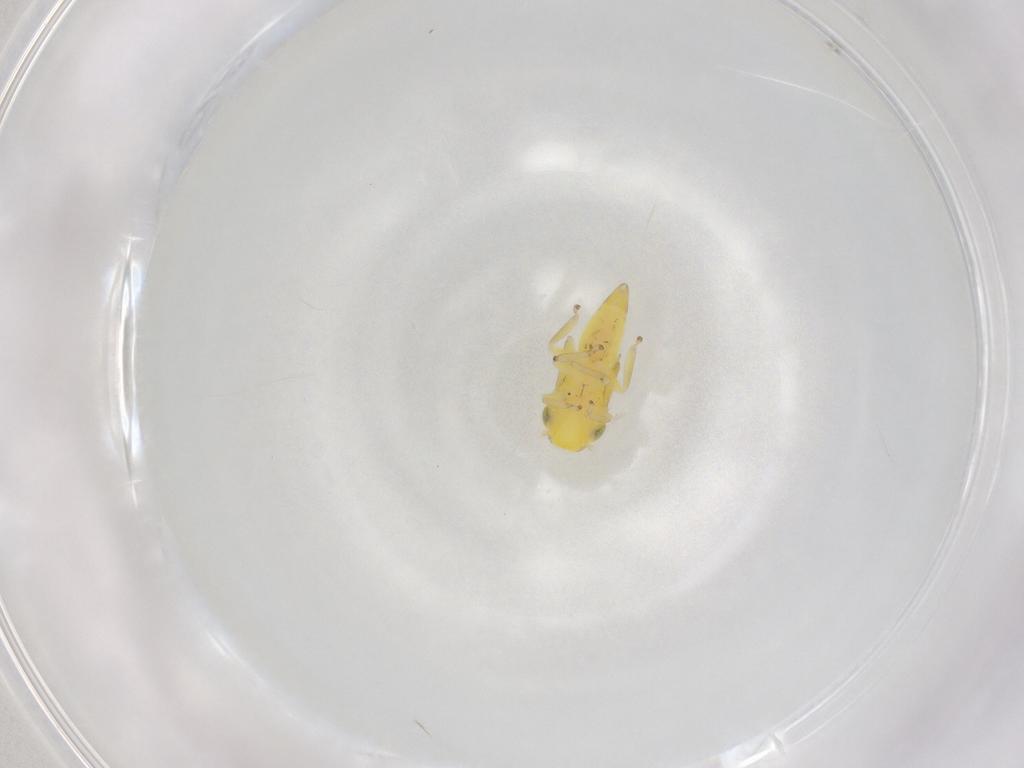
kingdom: Animalia
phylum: Arthropoda
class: Insecta
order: Hemiptera
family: Cicadellidae
